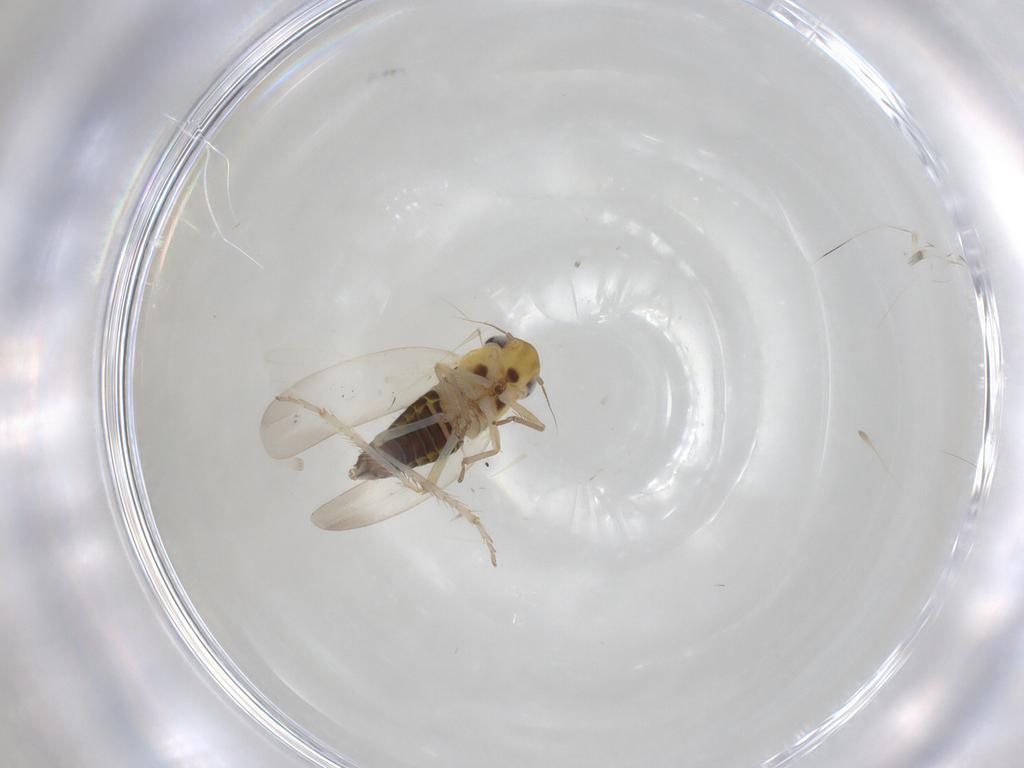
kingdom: Animalia
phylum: Arthropoda
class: Insecta
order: Hemiptera
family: Cicadellidae
